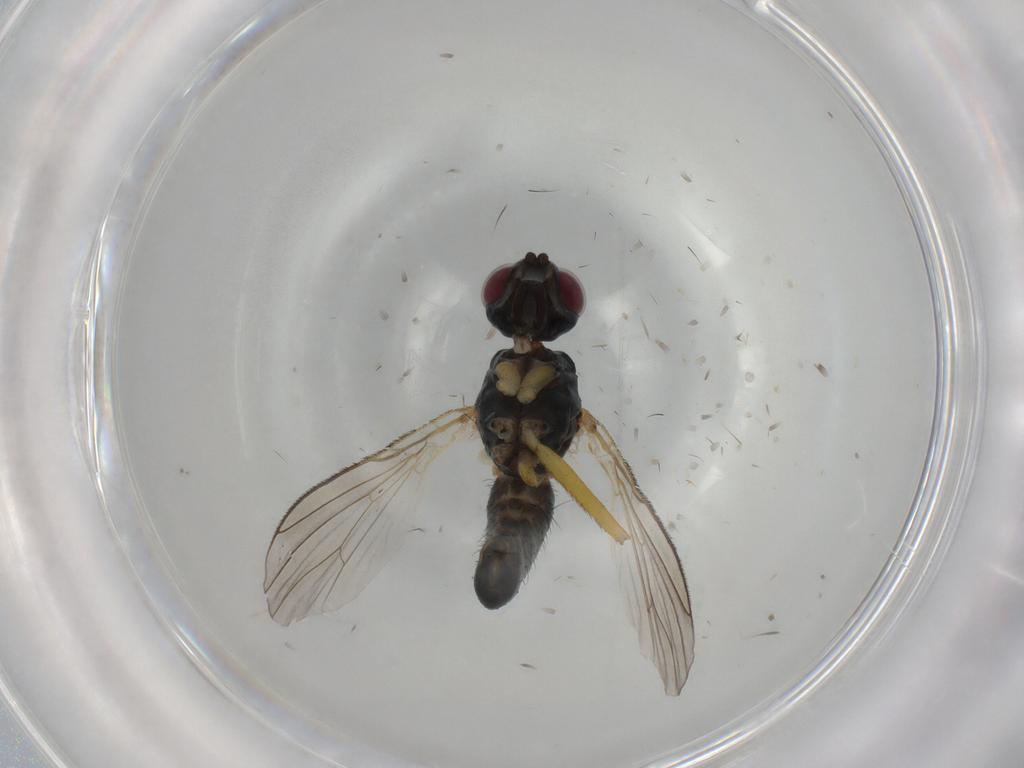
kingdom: Animalia
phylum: Arthropoda
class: Insecta
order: Diptera
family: Muscidae
